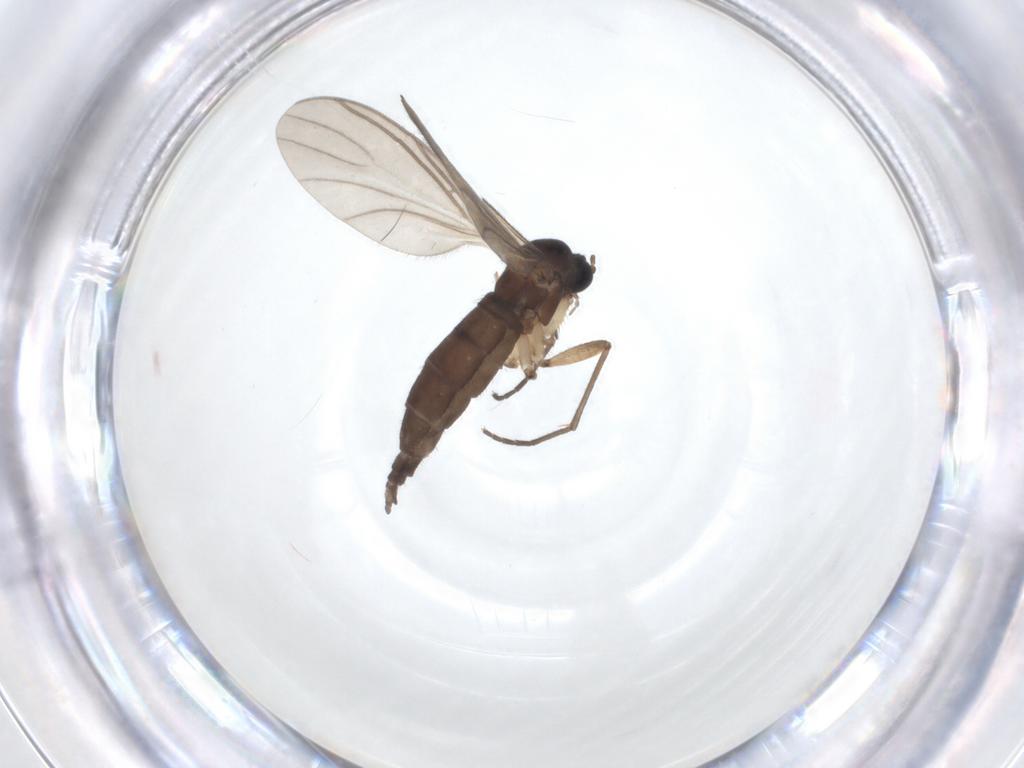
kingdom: Animalia
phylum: Arthropoda
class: Insecta
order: Diptera
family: Sciaridae
